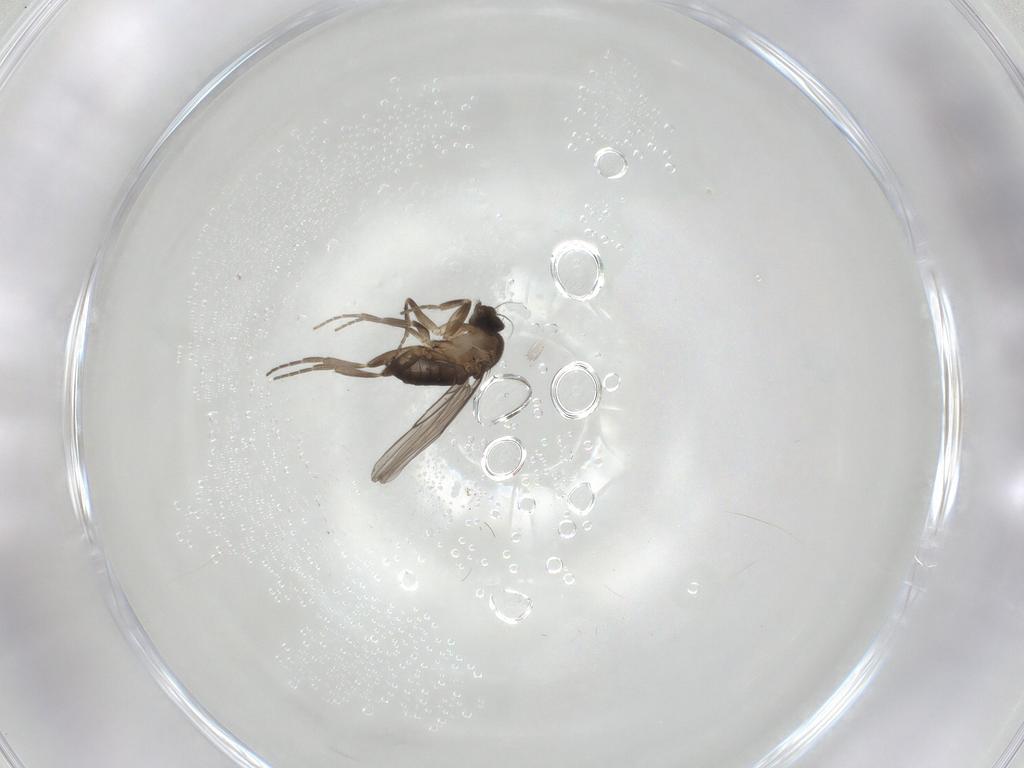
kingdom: Animalia
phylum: Arthropoda
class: Insecta
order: Diptera
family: Phoridae
